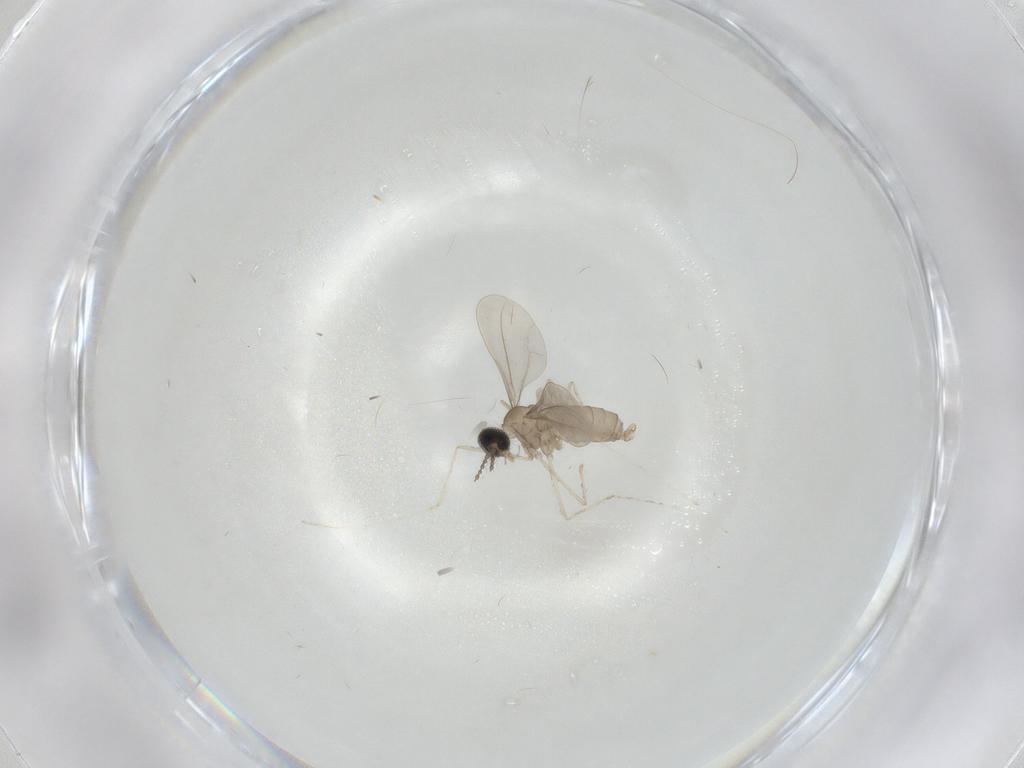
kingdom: Animalia
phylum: Arthropoda
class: Insecta
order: Diptera
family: Cecidomyiidae
